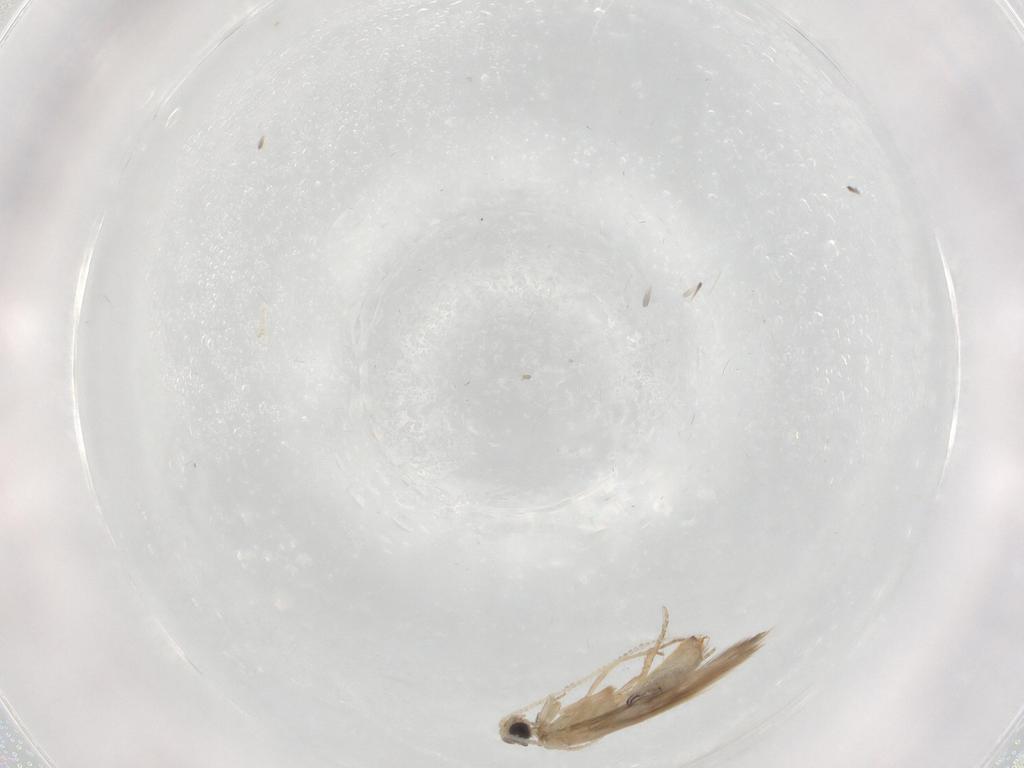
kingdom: Animalia
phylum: Arthropoda
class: Insecta
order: Trichoptera
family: Hydroptilidae
